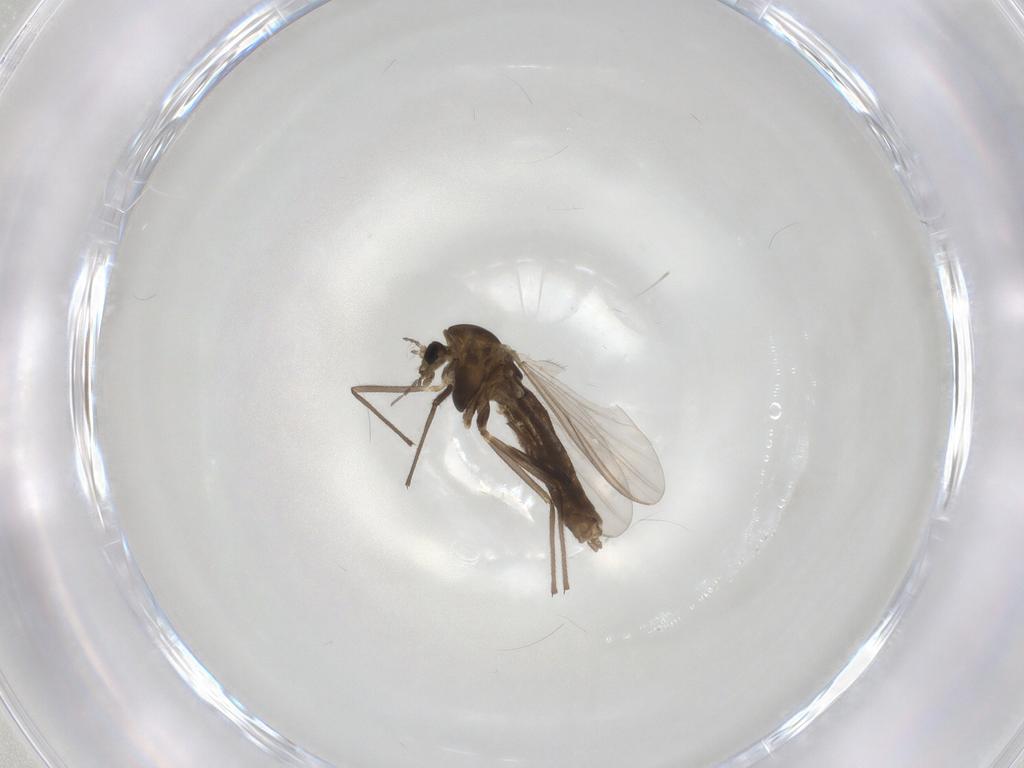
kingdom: Animalia
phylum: Arthropoda
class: Insecta
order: Diptera
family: Chironomidae
